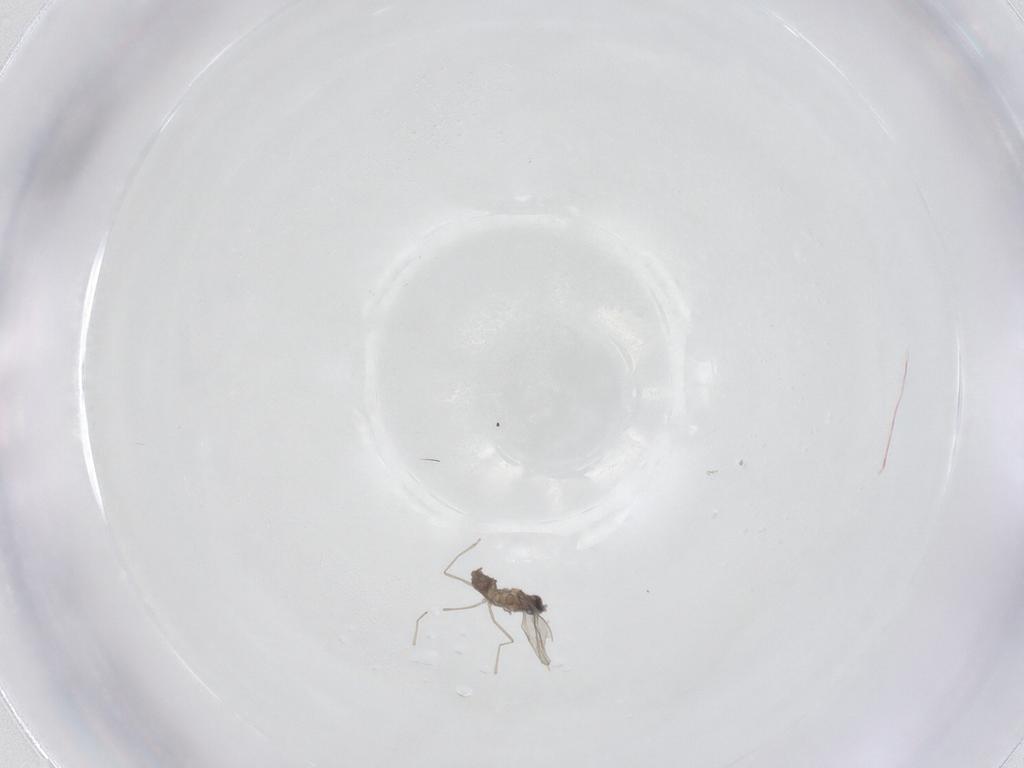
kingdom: Animalia
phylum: Arthropoda
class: Insecta
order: Diptera
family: Cecidomyiidae
